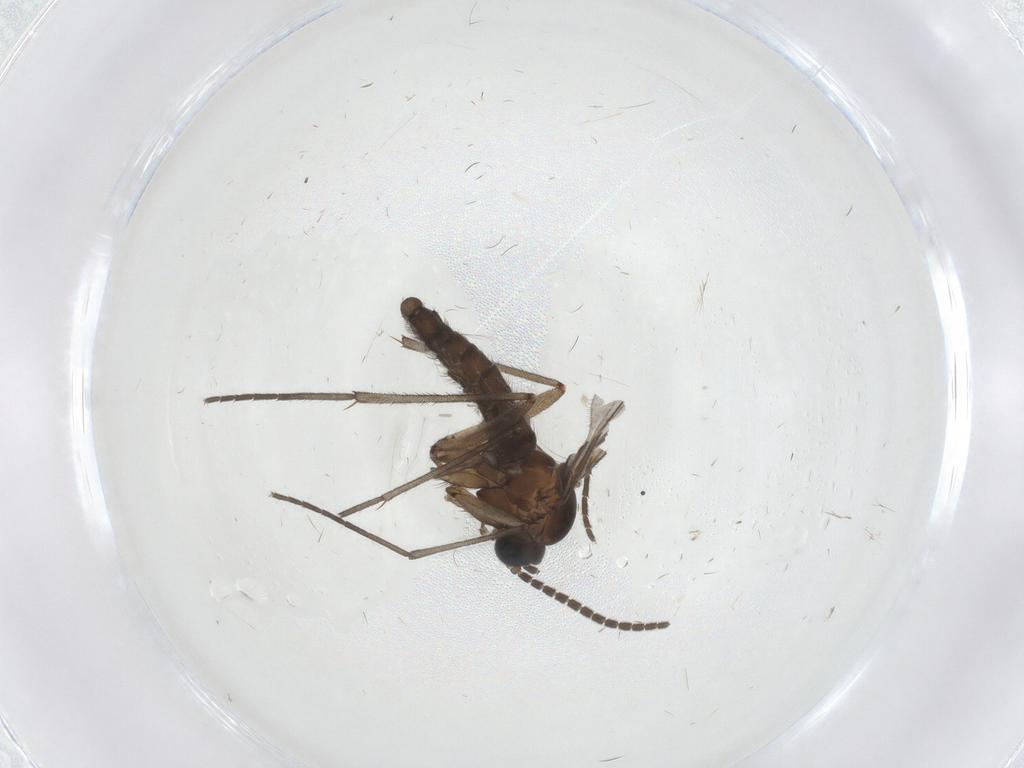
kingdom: Animalia
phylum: Arthropoda
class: Insecta
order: Diptera
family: Sciaridae
